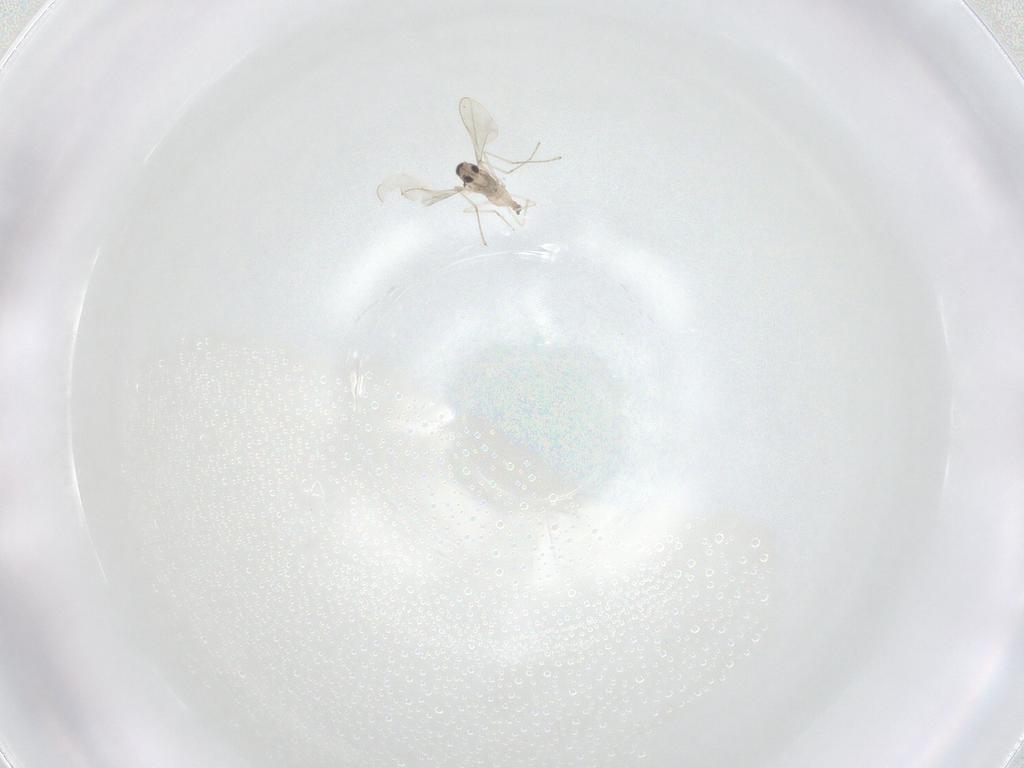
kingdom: Animalia
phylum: Arthropoda
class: Insecta
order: Diptera
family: Cecidomyiidae
